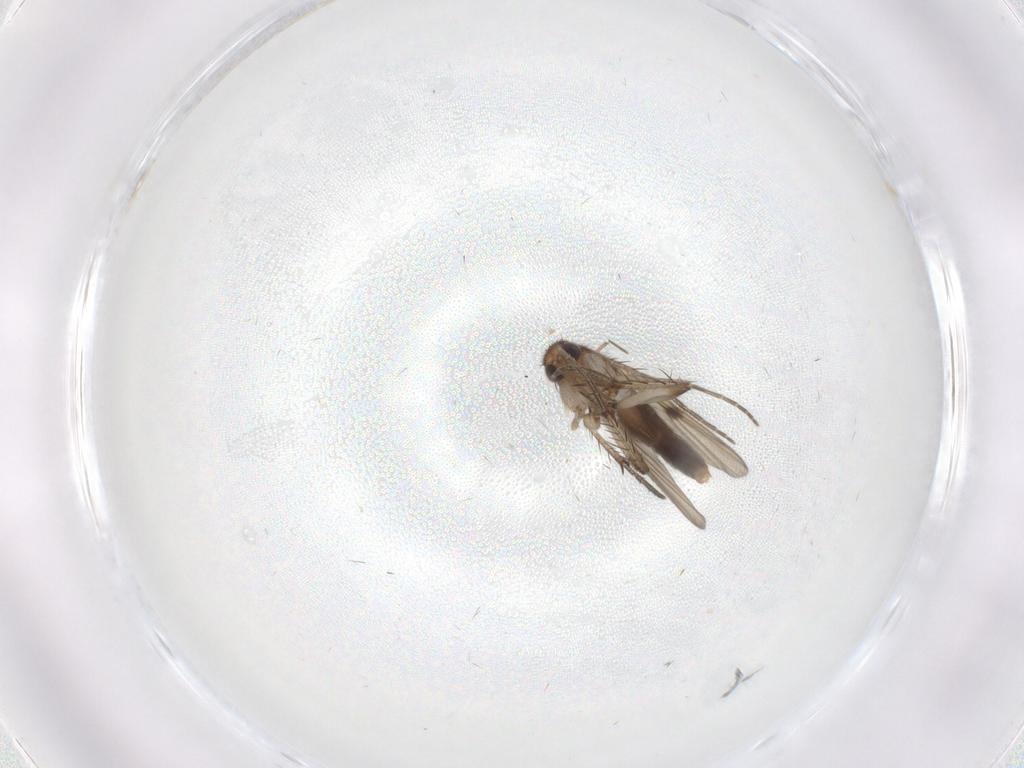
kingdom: Animalia
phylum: Arthropoda
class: Insecta
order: Diptera
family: Mycetophilidae
